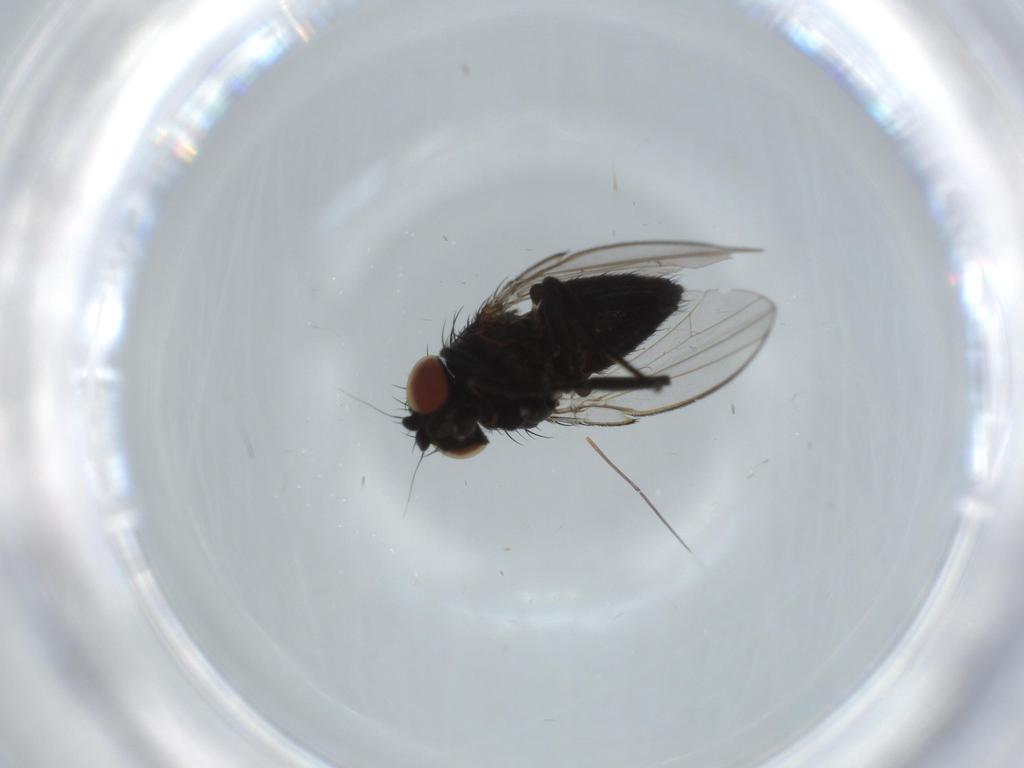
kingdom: Animalia
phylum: Arthropoda
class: Insecta
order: Diptera
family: Milichiidae
